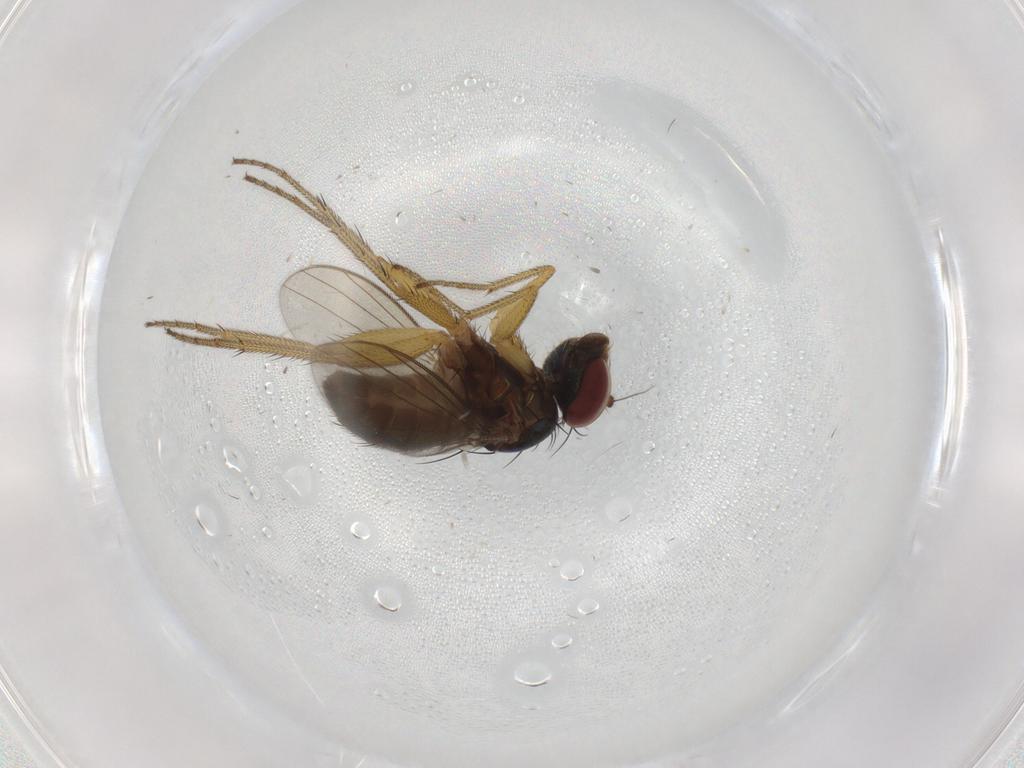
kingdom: Animalia
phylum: Arthropoda
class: Insecta
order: Diptera
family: Dolichopodidae
